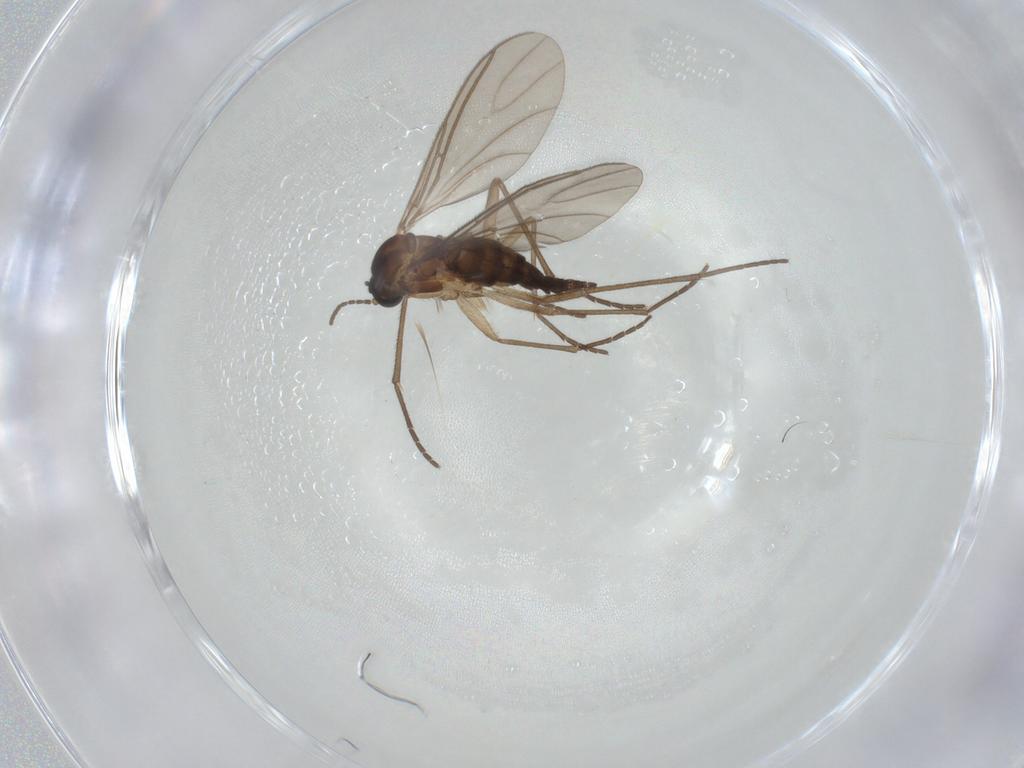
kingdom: Animalia
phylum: Arthropoda
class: Insecta
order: Diptera
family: Sciaridae
